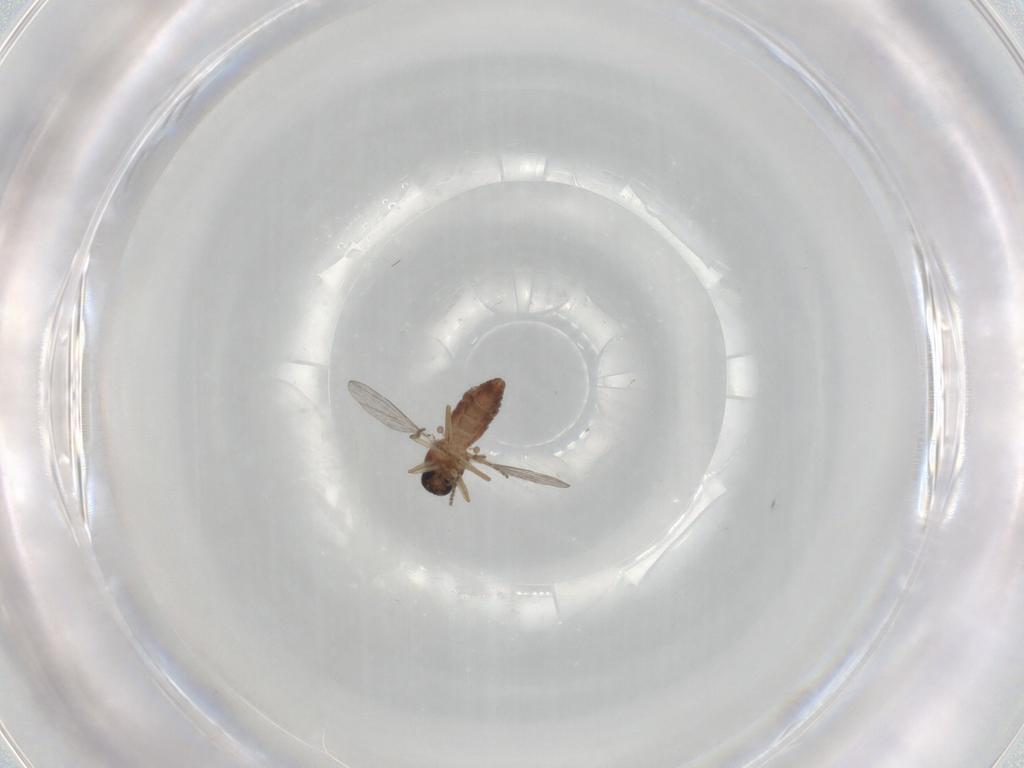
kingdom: Animalia
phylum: Arthropoda
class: Insecta
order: Diptera
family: Ceratopogonidae
